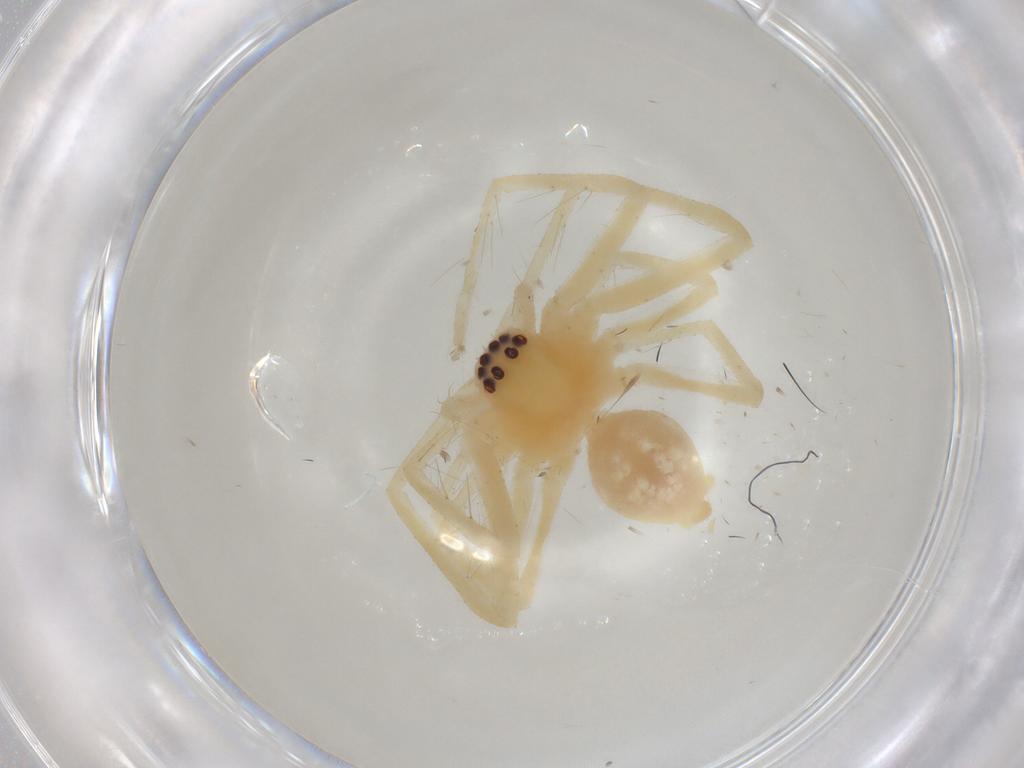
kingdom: Animalia
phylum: Arthropoda
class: Arachnida
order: Araneae
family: Sparassidae
